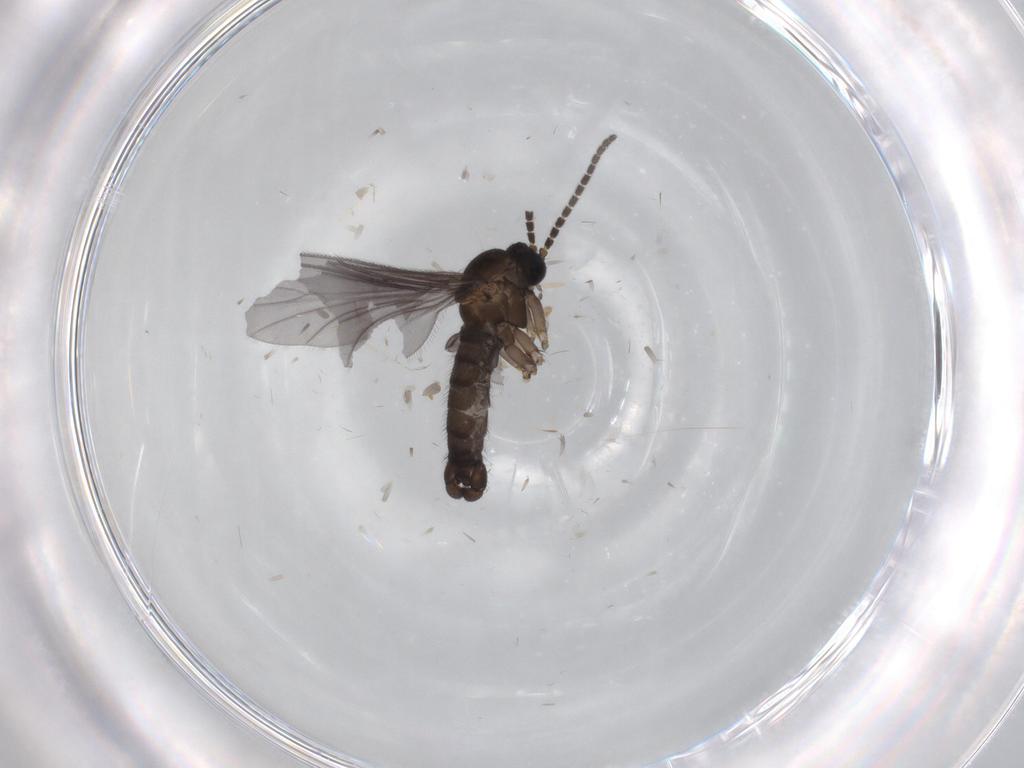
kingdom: Animalia
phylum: Arthropoda
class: Insecta
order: Diptera
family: Sciaridae
